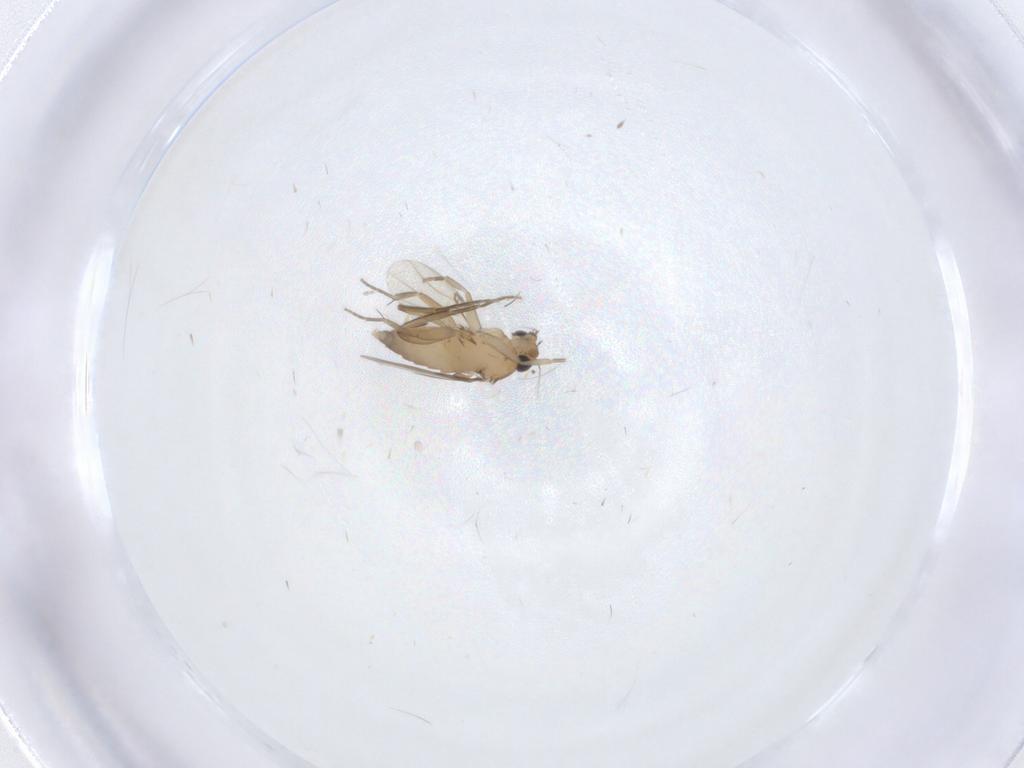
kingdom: Animalia
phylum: Arthropoda
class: Insecta
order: Diptera
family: Phoridae
